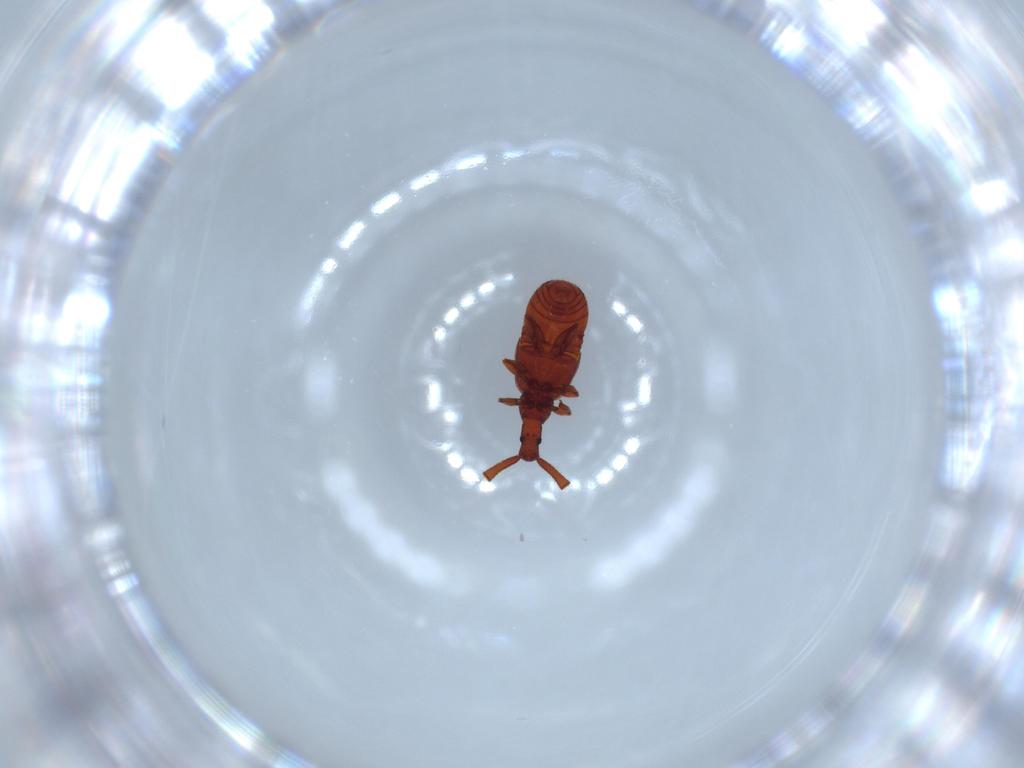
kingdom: Animalia
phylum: Arthropoda
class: Insecta
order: Coleoptera
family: Staphylinidae
